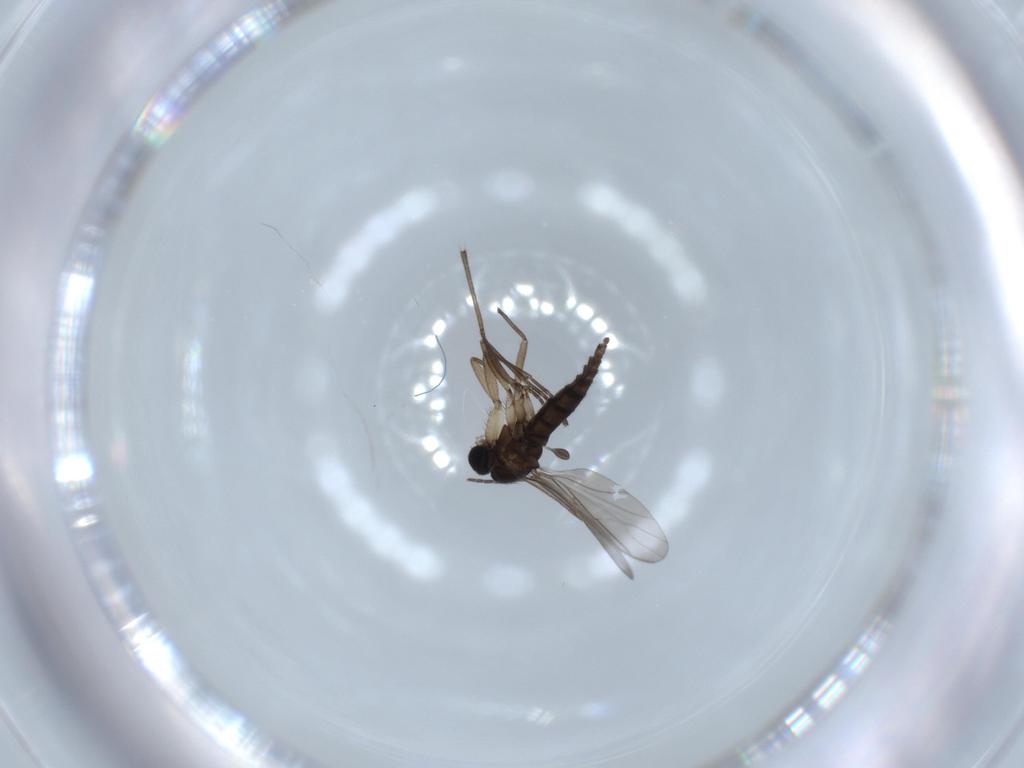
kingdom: Animalia
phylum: Arthropoda
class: Insecta
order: Diptera
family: Sciaridae
